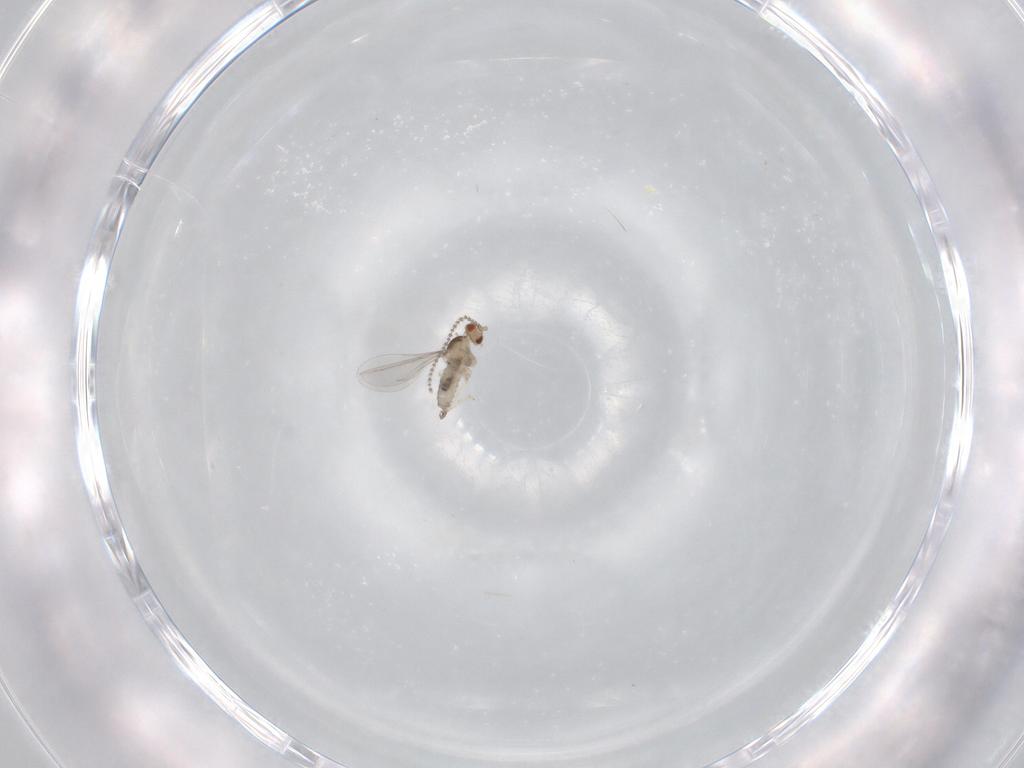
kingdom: Animalia
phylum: Arthropoda
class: Insecta
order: Diptera
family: Cecidomyiidae
